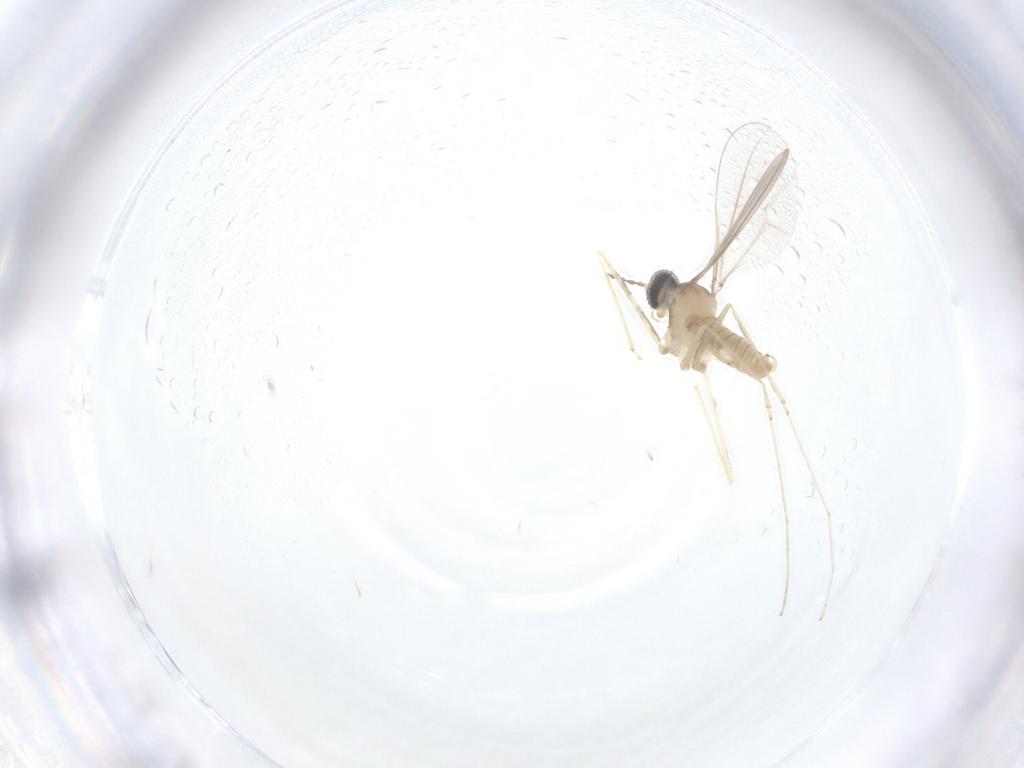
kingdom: Animalia
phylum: Arthropoda
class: Insecta
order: Diptera
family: Cecidomyiidae
